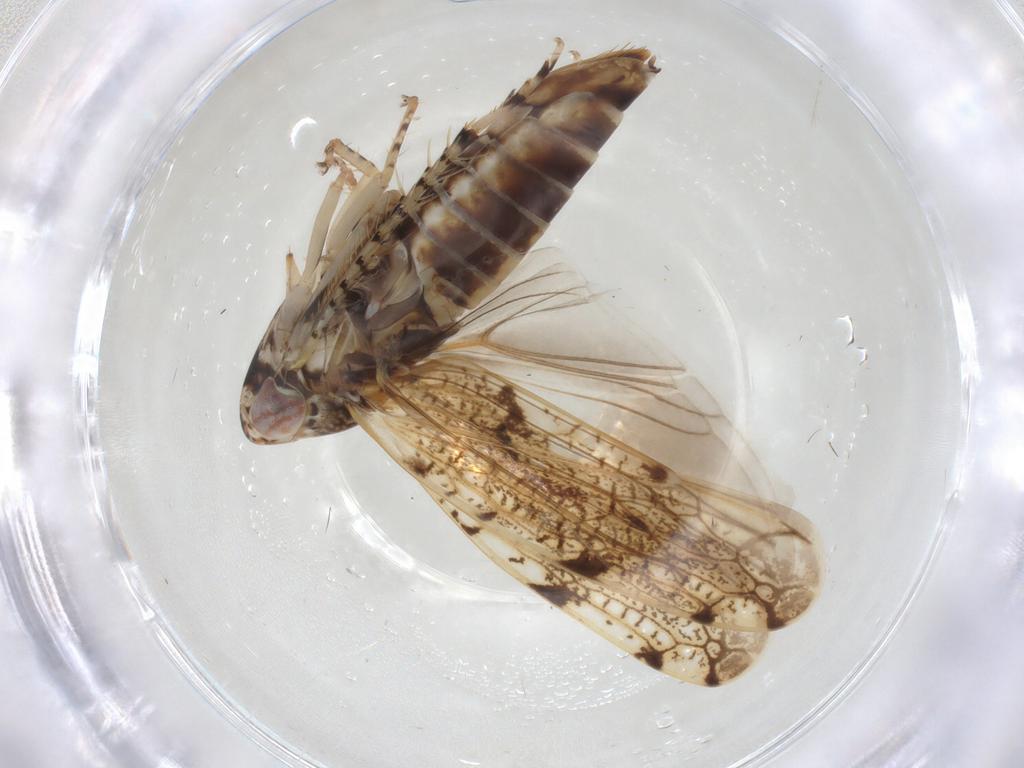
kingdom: Animalia
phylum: Arthropoda
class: Insecta
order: Hemiptera
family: Cicadellidae
